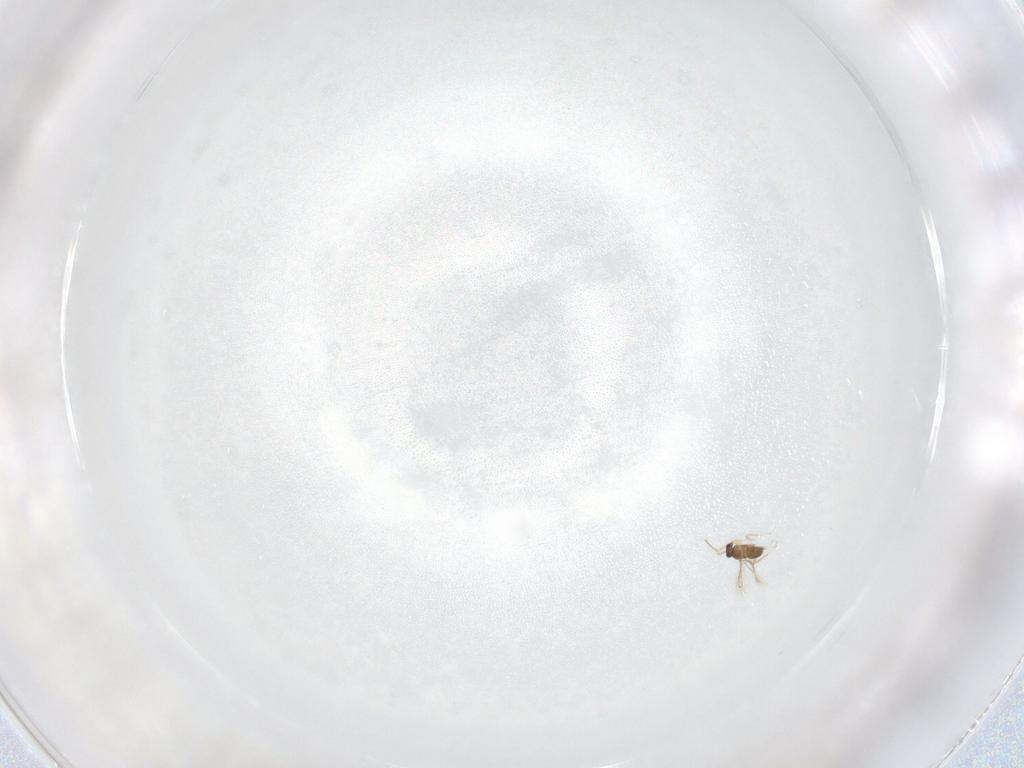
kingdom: Animalia
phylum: Arthropoda
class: Insecta
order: Hymenoptera
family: Scelionidae
